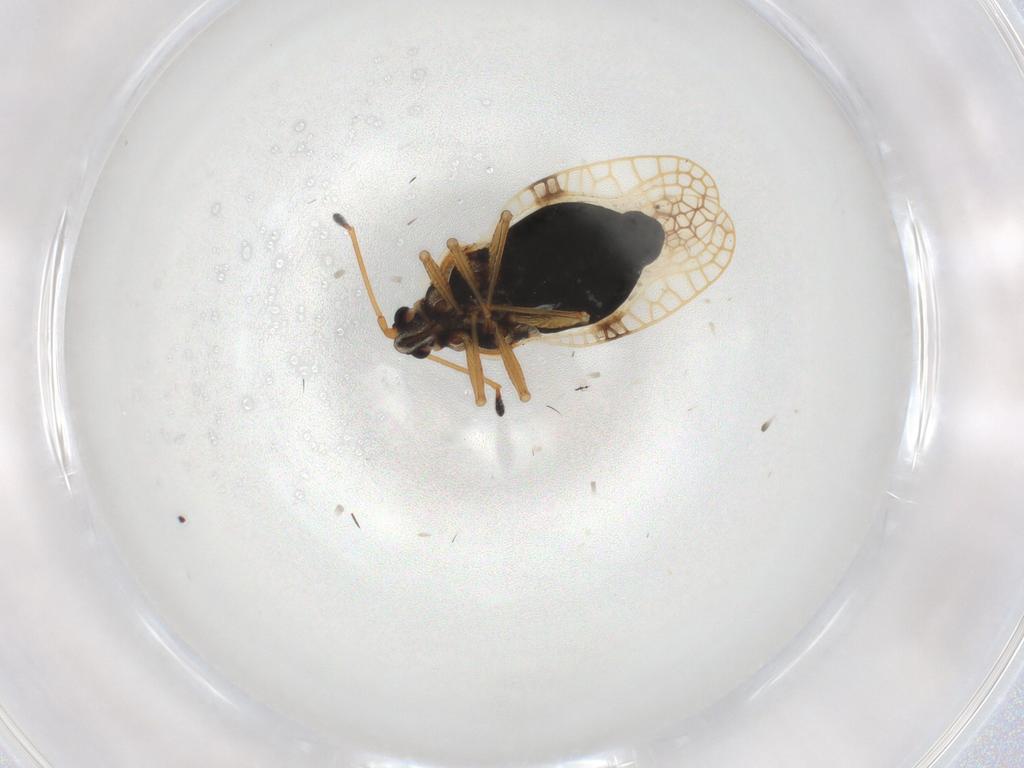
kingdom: Animalia
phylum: Arthropoda
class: Insecta
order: Hemiptera
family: Tingidae
